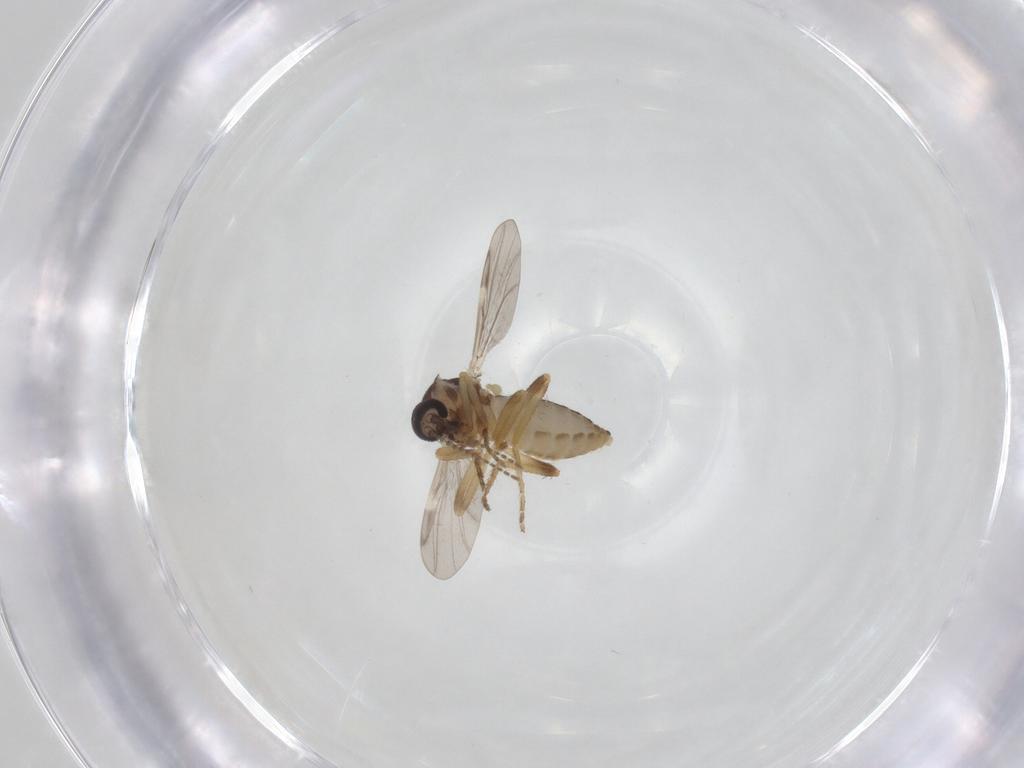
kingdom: Animalia
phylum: Arthropoda
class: Insecta
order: Diptera
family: Ceratopogonidae
